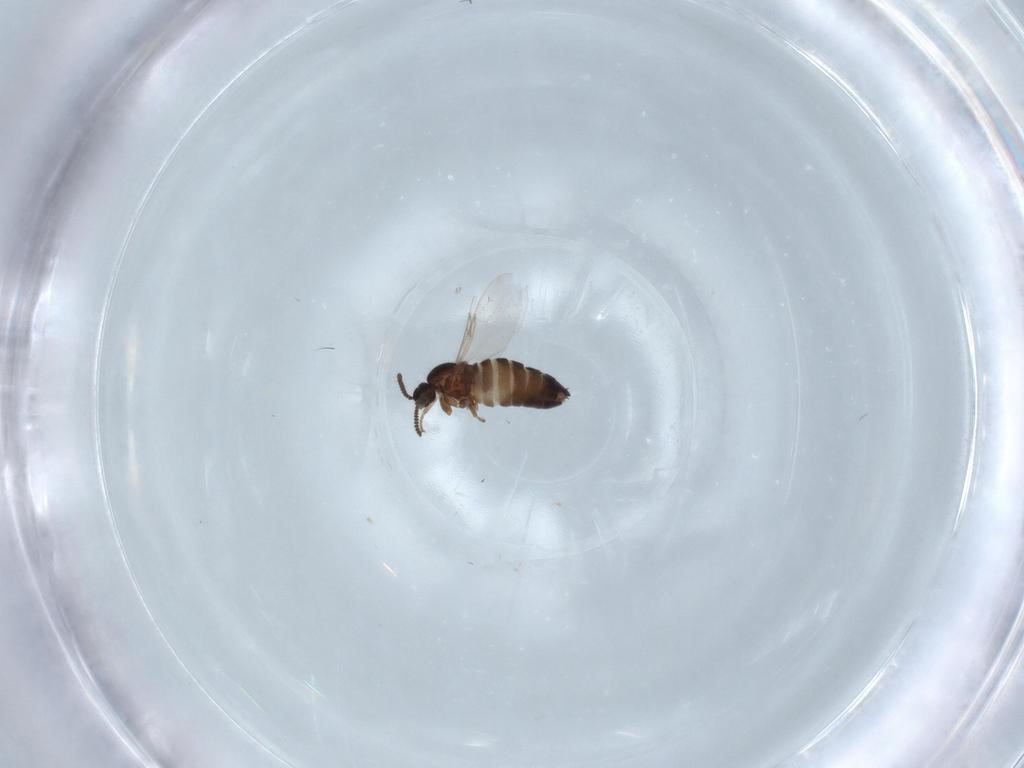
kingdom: Animalia
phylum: Arthropoda
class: Insecta
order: Diptera
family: Scatopsidae
